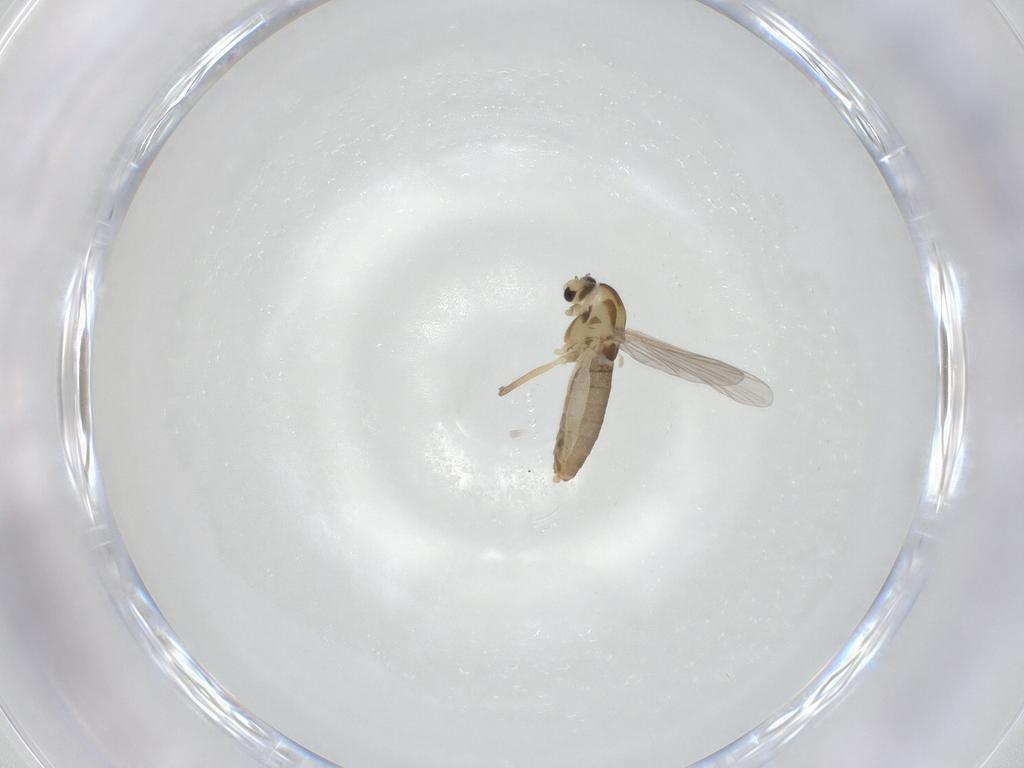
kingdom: Animalia
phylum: Arthropoda
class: Insecta
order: Diptera
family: Chironomidae
